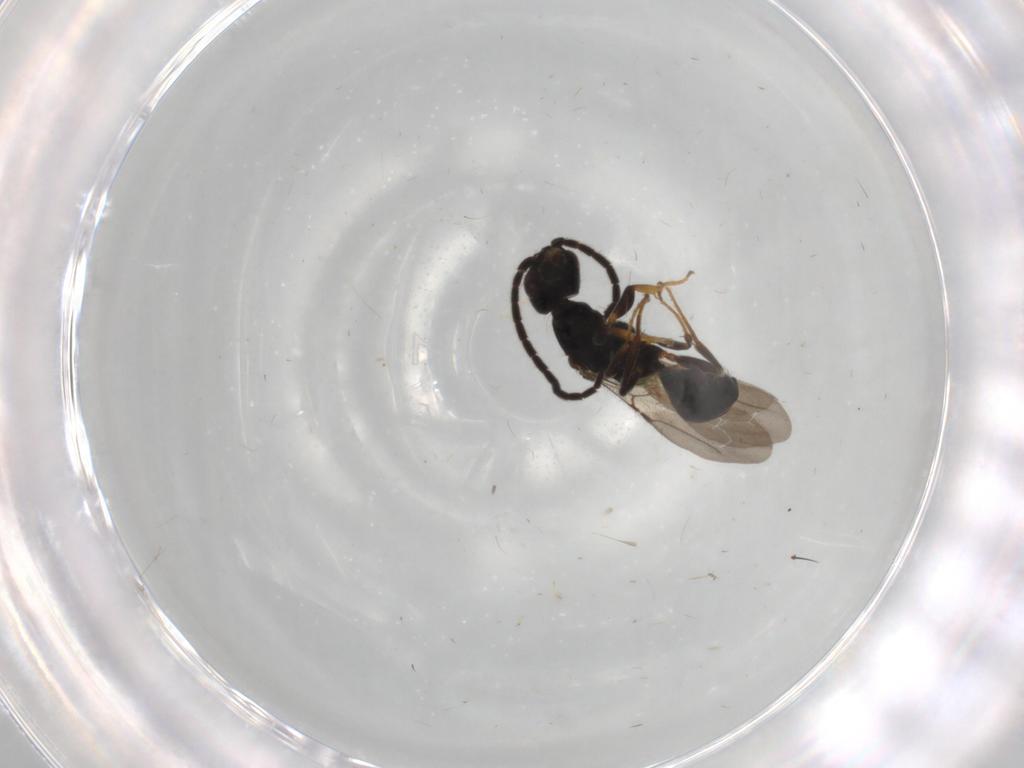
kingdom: Animalia
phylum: Arthropoda
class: Insecta
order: Hymenoptera
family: Bethylidae
